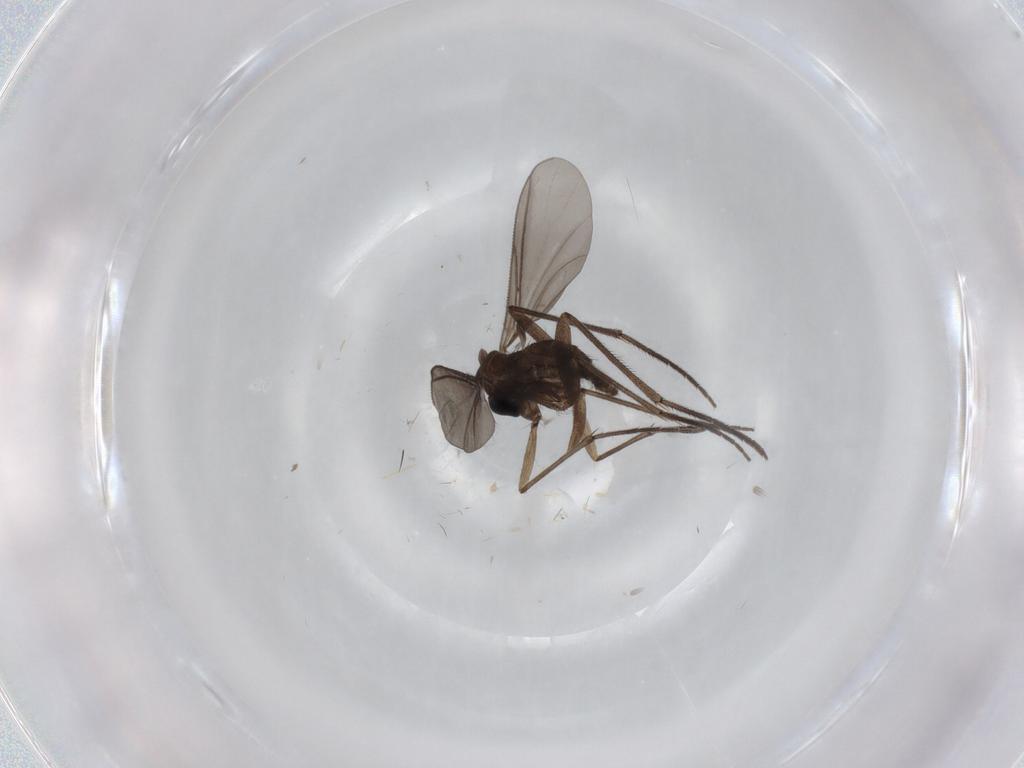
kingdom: Animalia
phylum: Arthropoda
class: Insecta
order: Diptera
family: Sciaridae
